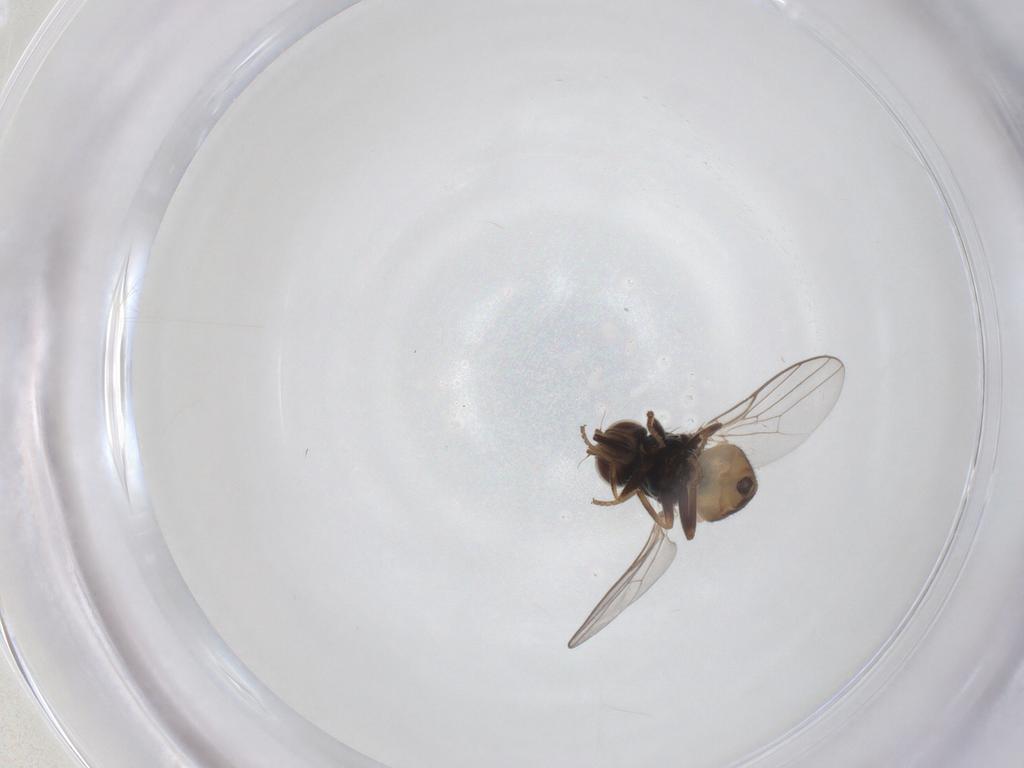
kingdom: Animalia
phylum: Arthropoda
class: Insecta
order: Diptera
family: Chloropidae
